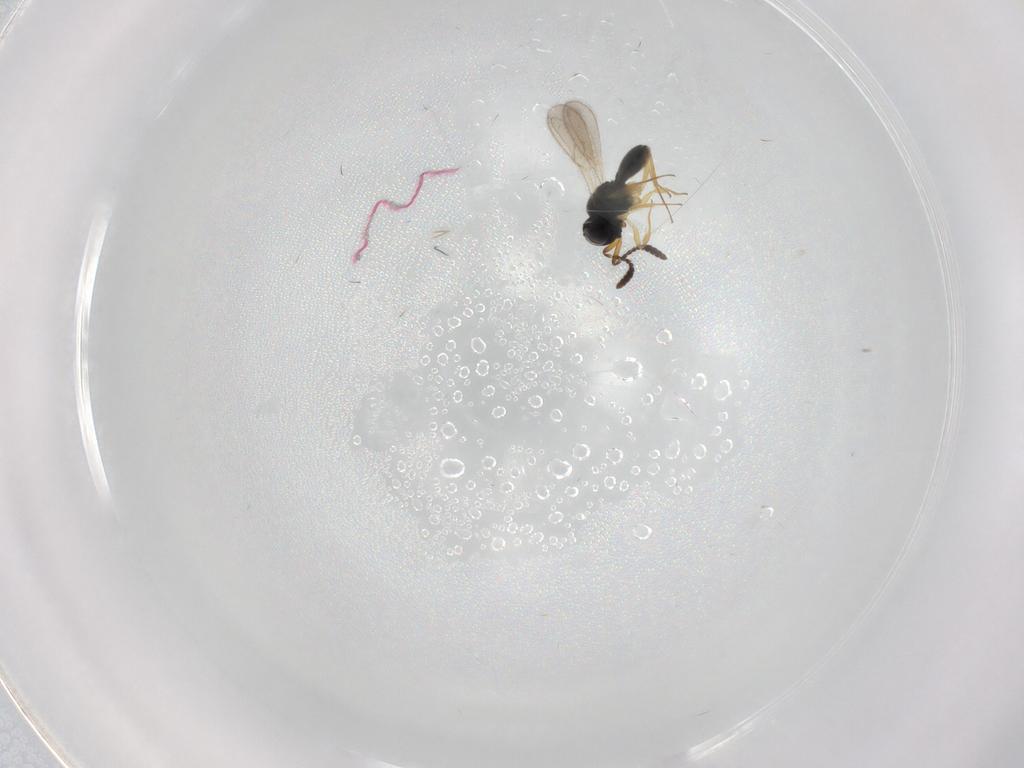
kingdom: Animalia
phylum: Arthropoda
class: Insecta
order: Hymenoptera
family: Scelionidae
